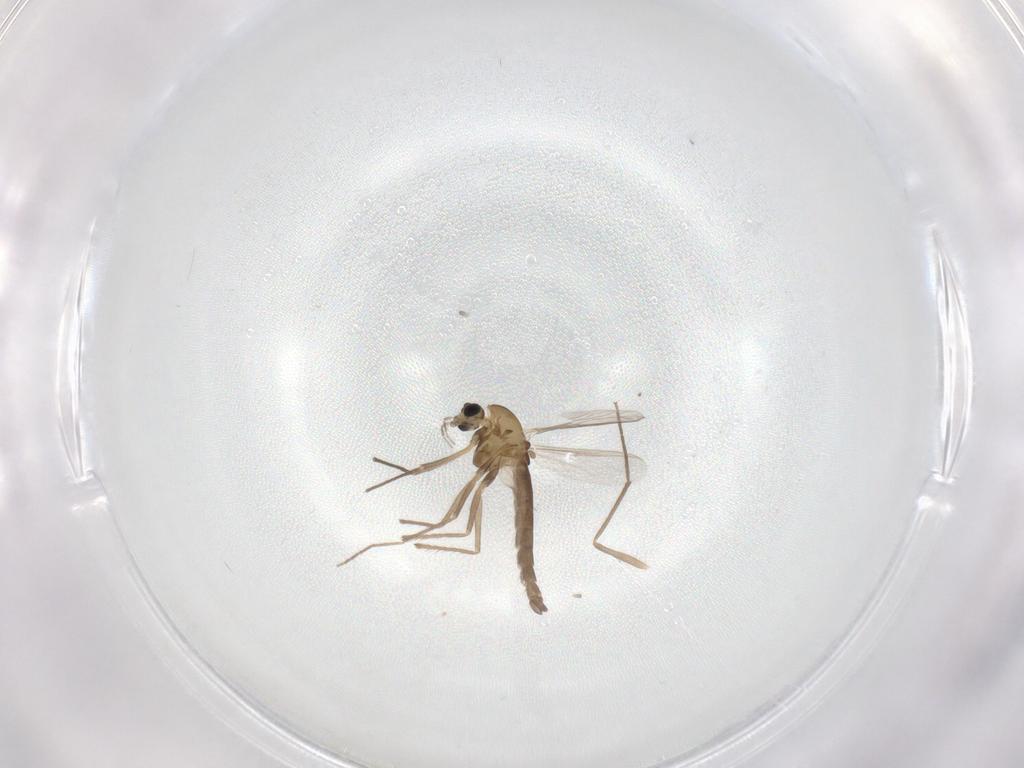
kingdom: Animalia
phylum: Arthropoda
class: Insecta
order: Diptera
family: Chironomidae
